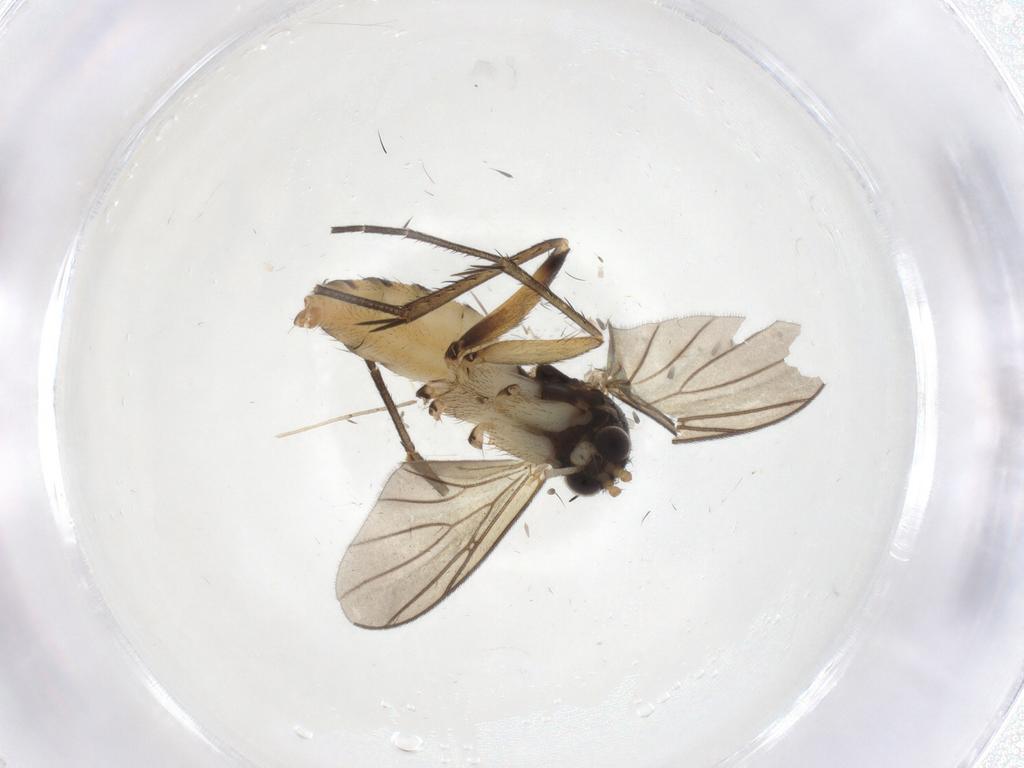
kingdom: Animalia
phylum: Arthropoda
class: Insecta
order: Diptera
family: Sciaridae
